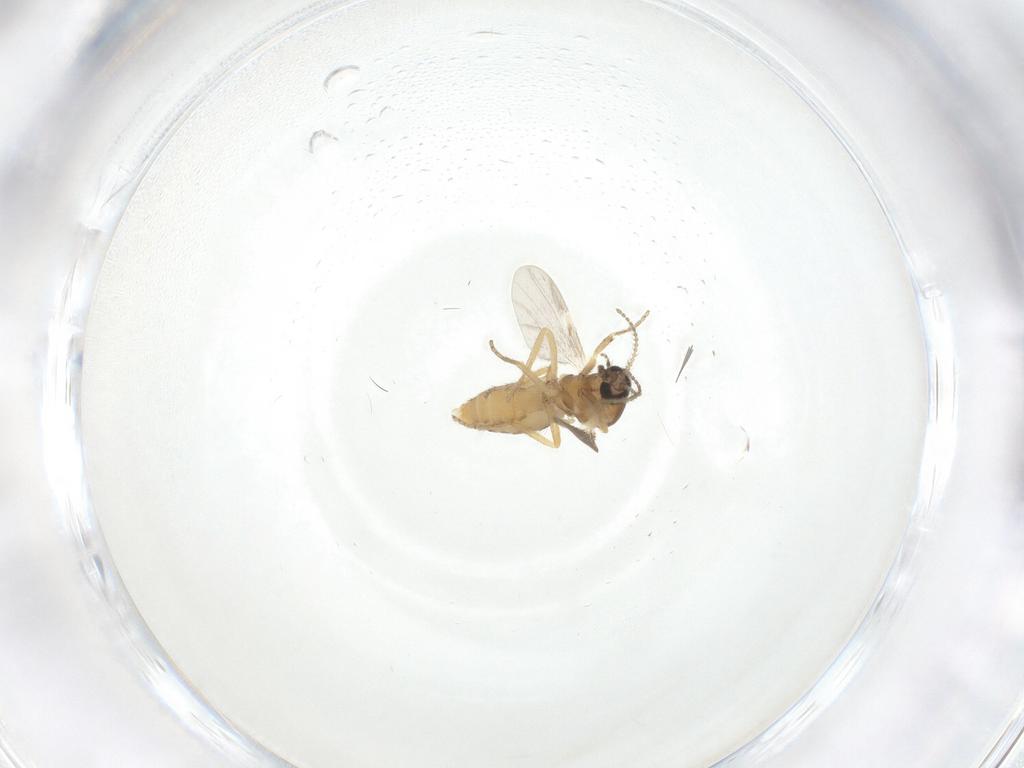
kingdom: Animalia
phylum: Arthropoda
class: Insecta
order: Diptera
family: Ceratopogonidae
